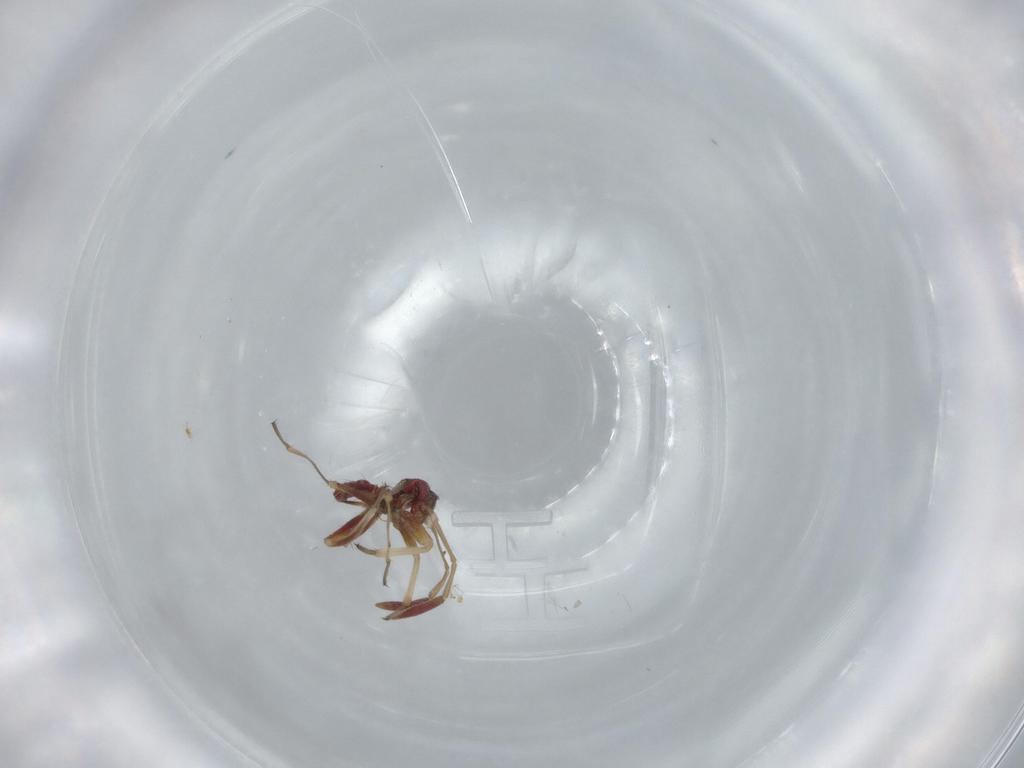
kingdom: Animalia
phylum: Arthropoda
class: Insecta
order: Hemiptera
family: Miridae
